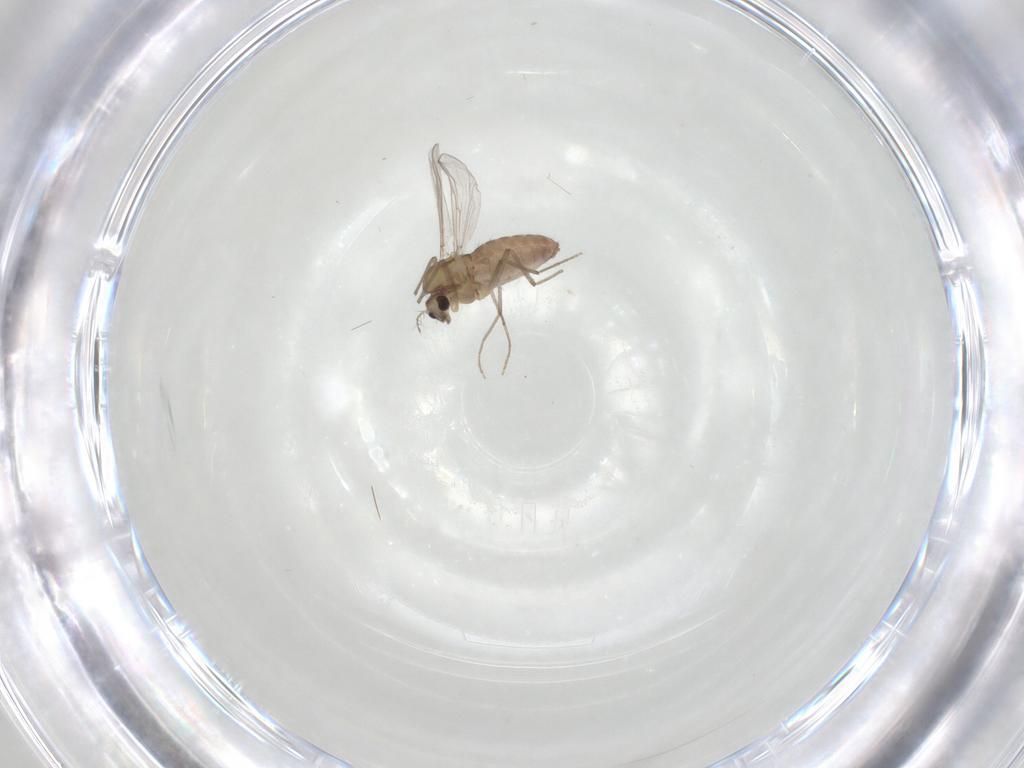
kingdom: Animalia
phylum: Arthropoda
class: Insecta
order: Diptera
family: Chironomidae
